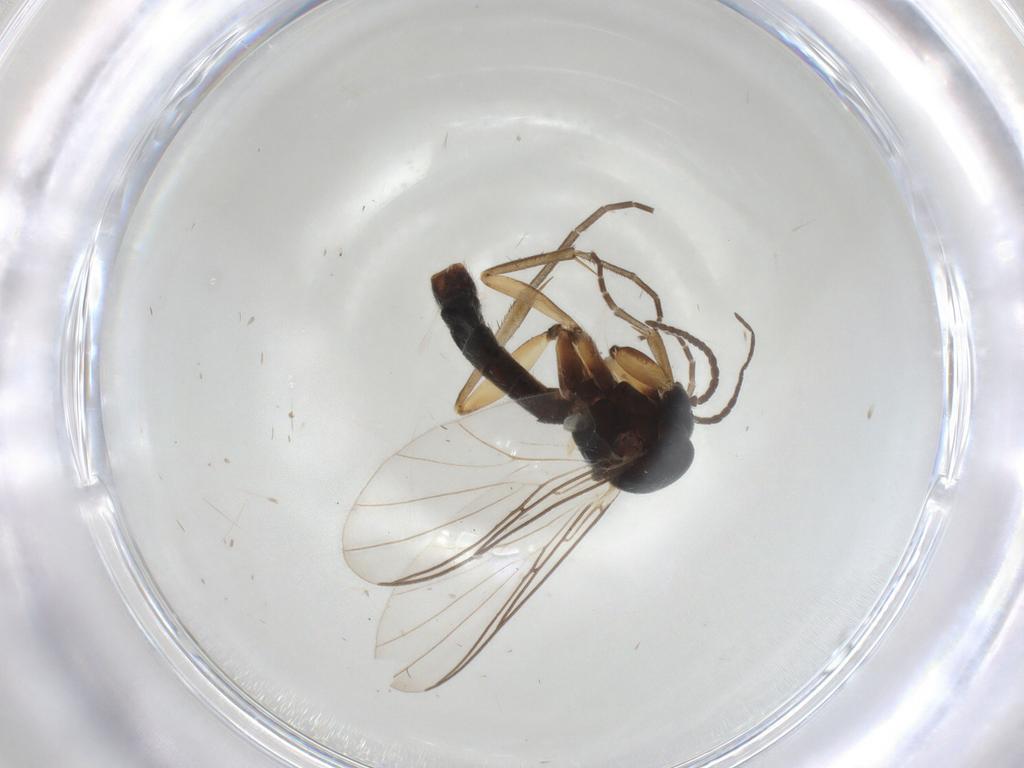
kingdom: Animalia
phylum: Arthropoda
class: Insecta
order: Diptera
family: Mycetophilidae
